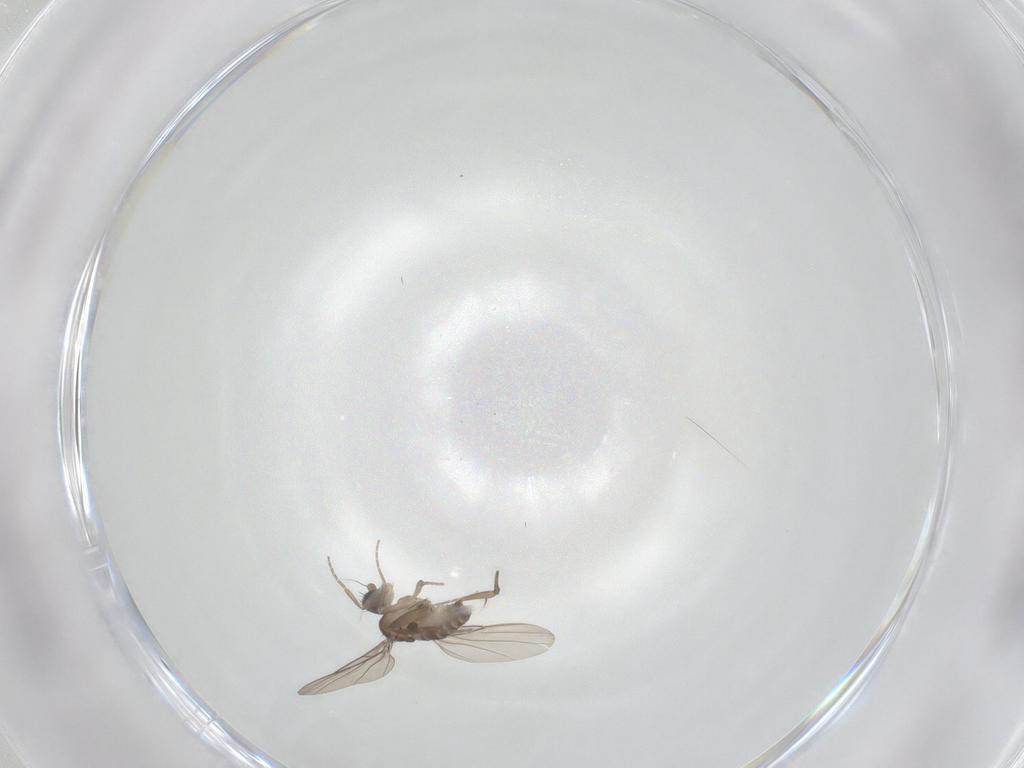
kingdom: Animalia
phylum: Arthropoda
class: Insecta
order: Diptera
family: Phoridae
